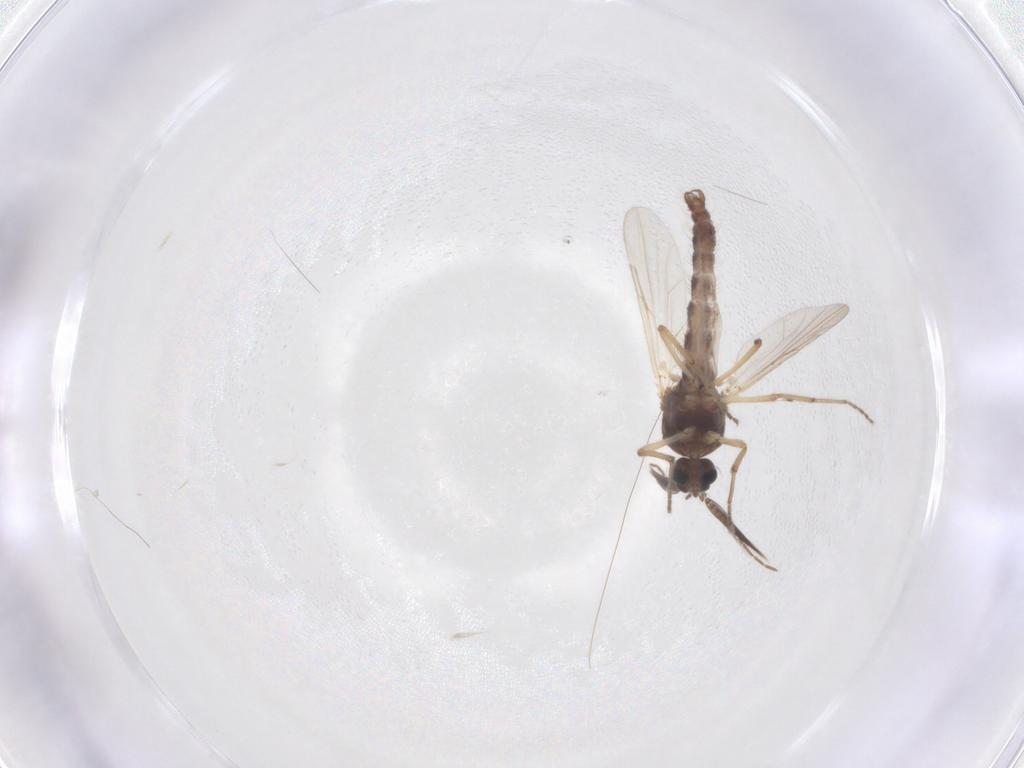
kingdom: Animalia
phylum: Arthropoda
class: Insecta
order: Diptera
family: Ceratopogonidae
